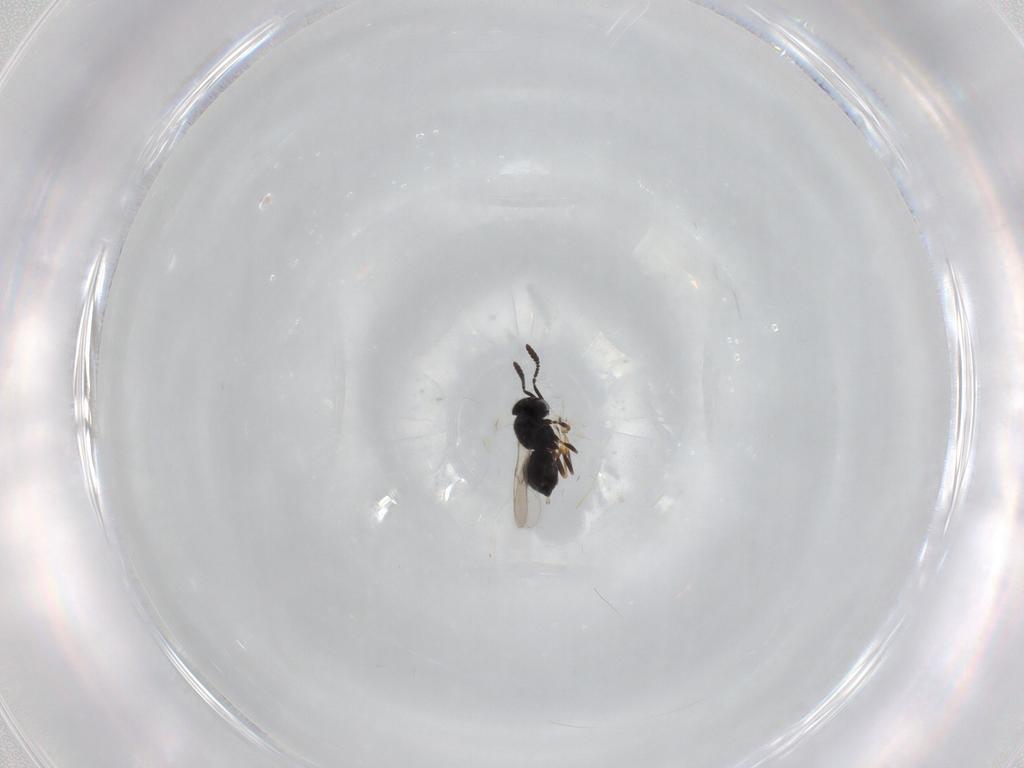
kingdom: Animalia
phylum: Arthropoda
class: Insecta
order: Hymenoptera
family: Scelionidae
